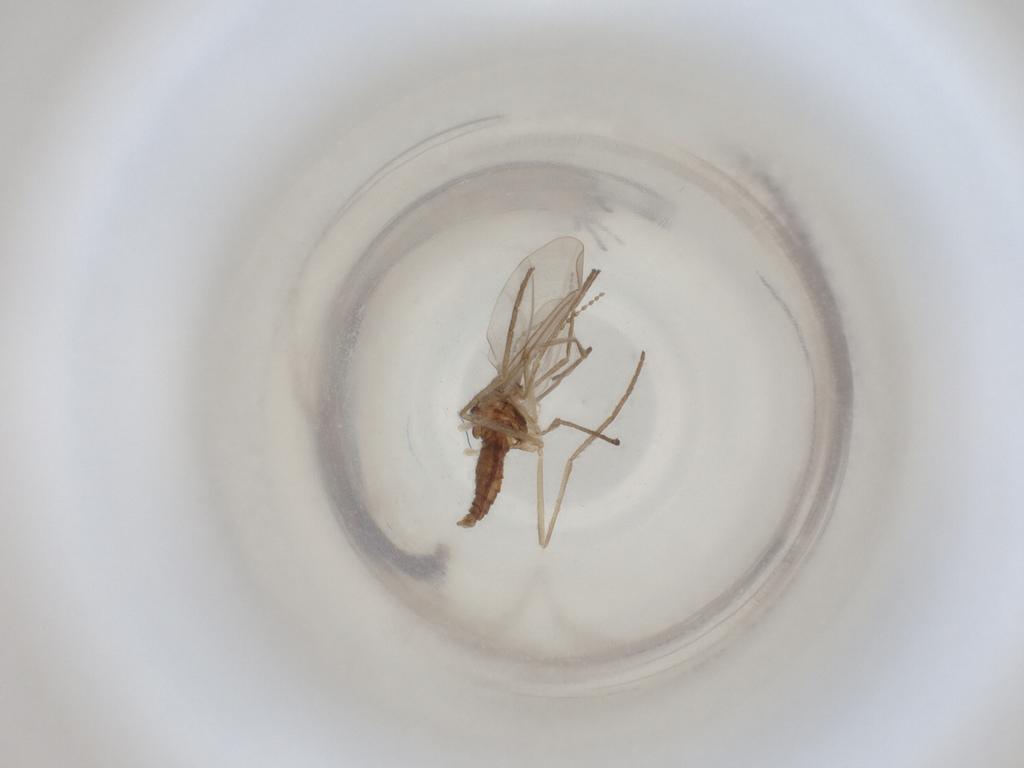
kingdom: Animalia
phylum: Arthropoda
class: Insecta
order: Diptera
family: Cecidomyiidae
